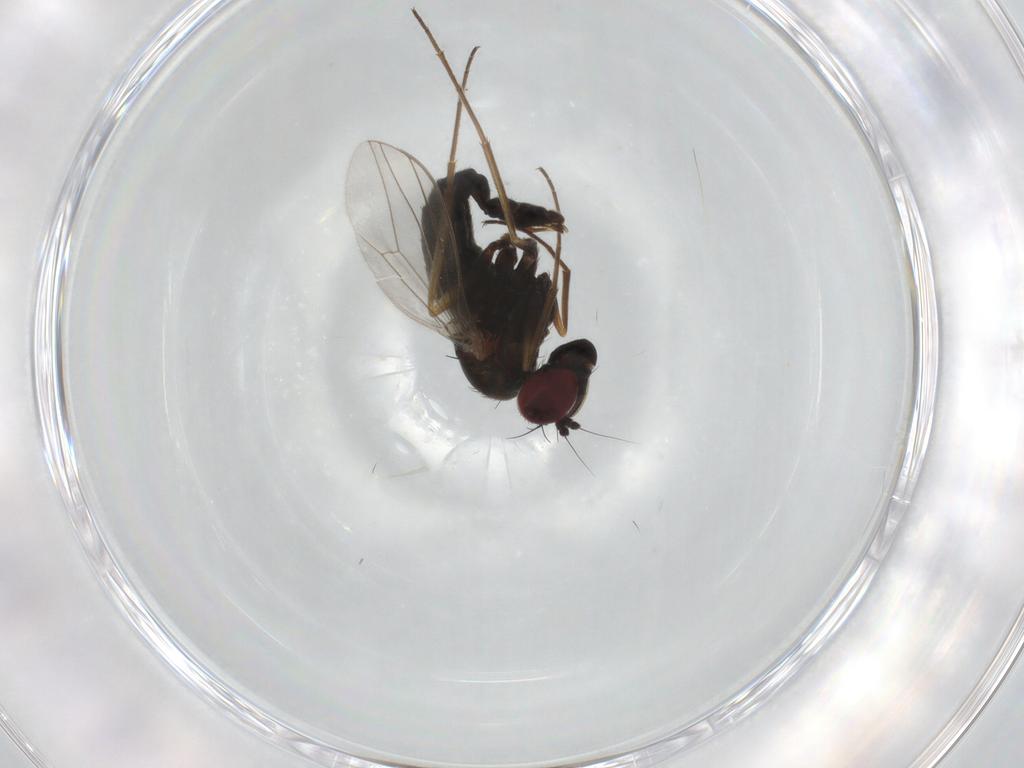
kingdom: Animalia
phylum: Arthropoda
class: Insecta
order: Diptera
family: Dolichopodidae
